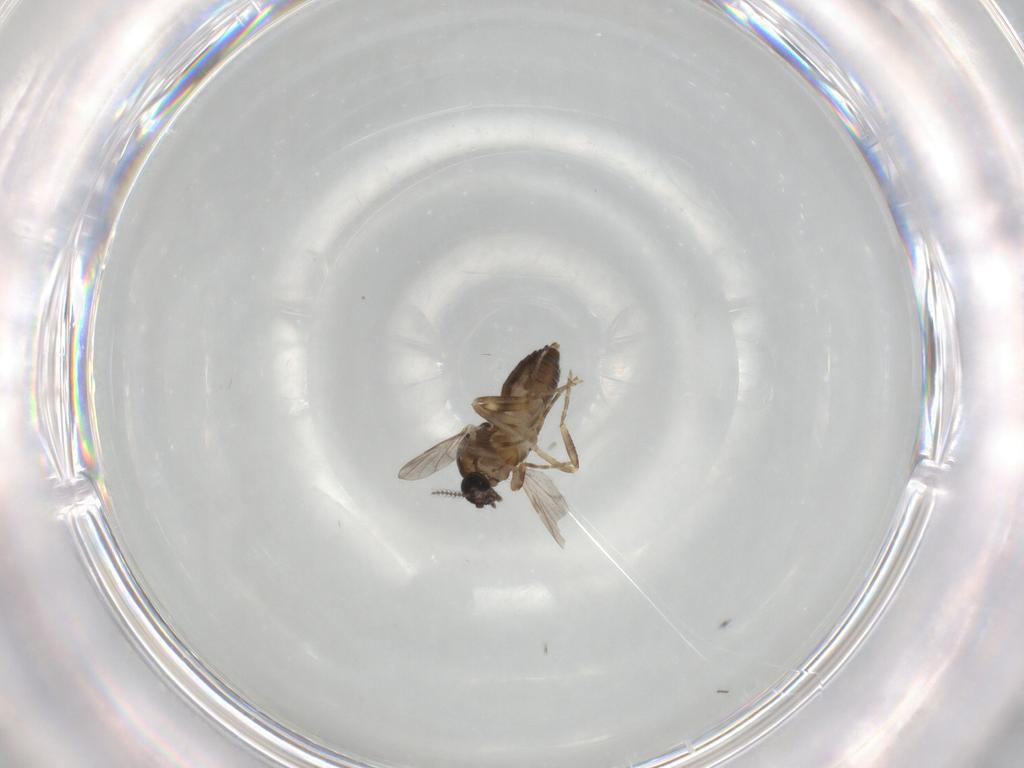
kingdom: Animalia
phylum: Arthropoda
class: Insecta
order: Diptera
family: Ceratopogonidae
